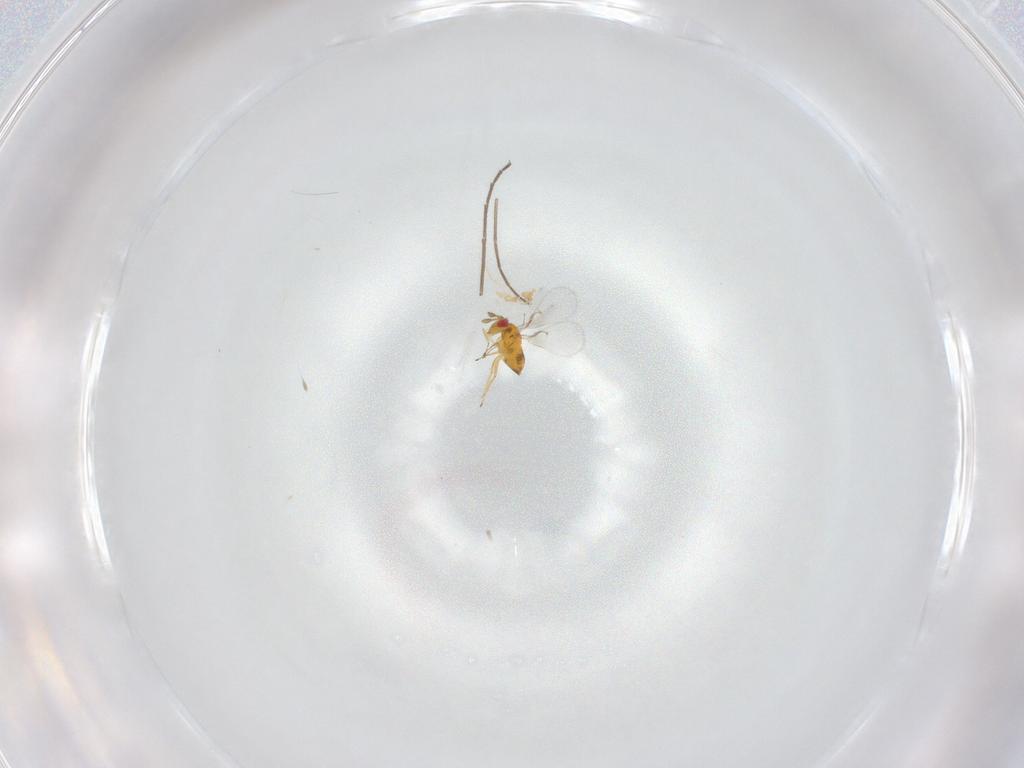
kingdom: Animalia
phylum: Arthropoda
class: Insecta
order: Hymenoptera
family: Trichogrammatidae
